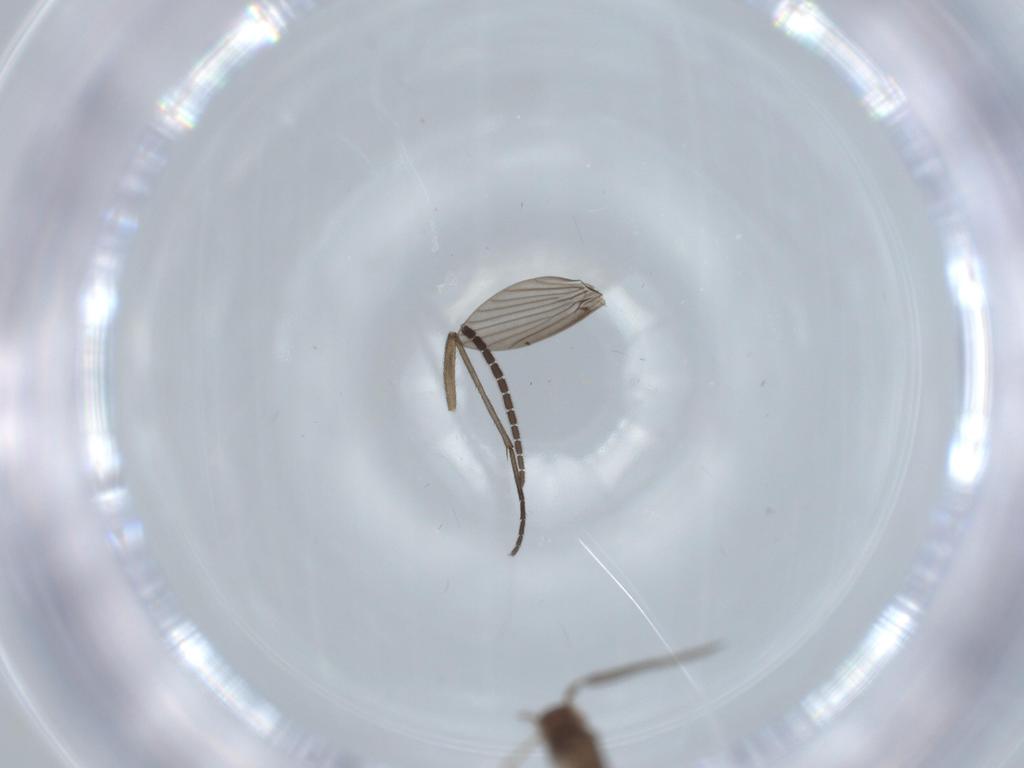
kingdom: Animalia
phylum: Arthropoda
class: Insecta
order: Diptera
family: Sciaridae
